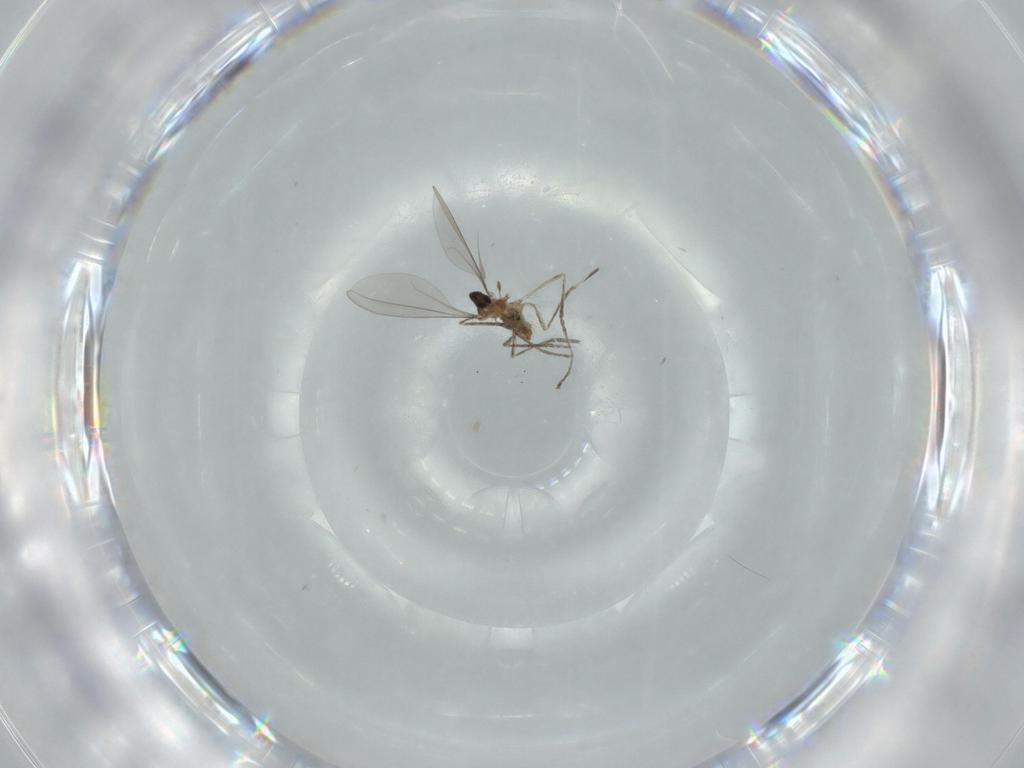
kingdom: Animalia
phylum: Arthropoda
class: Insecta
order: Diptera
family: Cecidomyiidae
